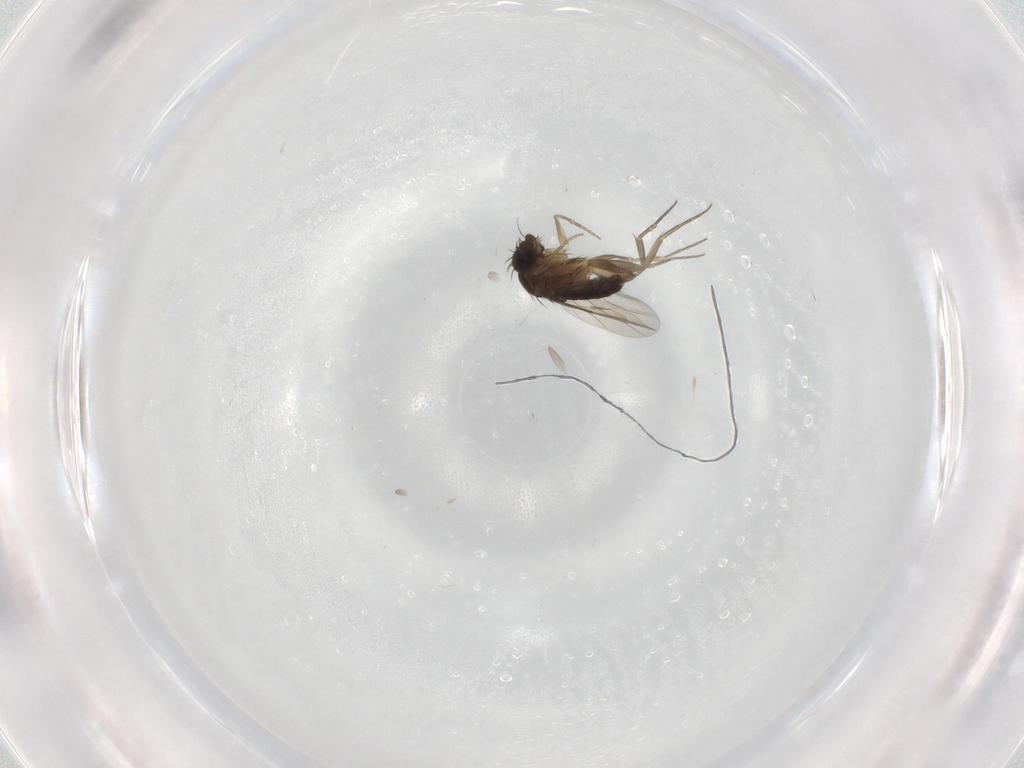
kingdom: Animalia
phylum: Arthropoda
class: Insecta
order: Diptera
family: Phoridae
